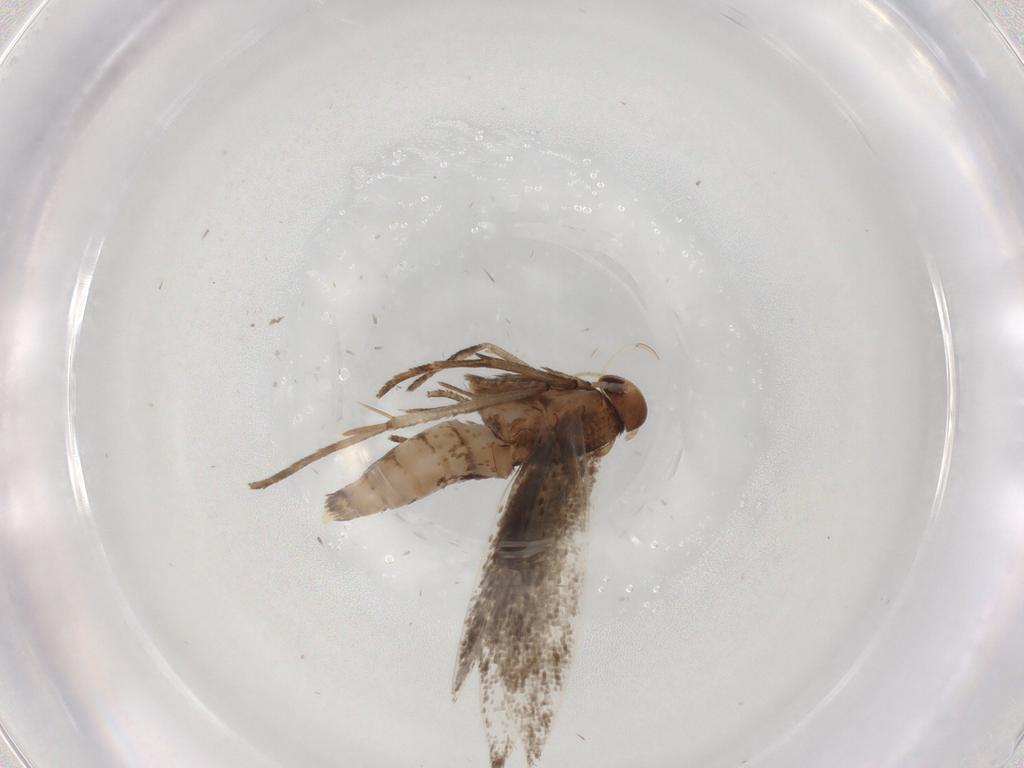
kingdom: Animalia
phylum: Arthropoda
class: Insecta
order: Lepidoptera
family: Cosmopterigidae
